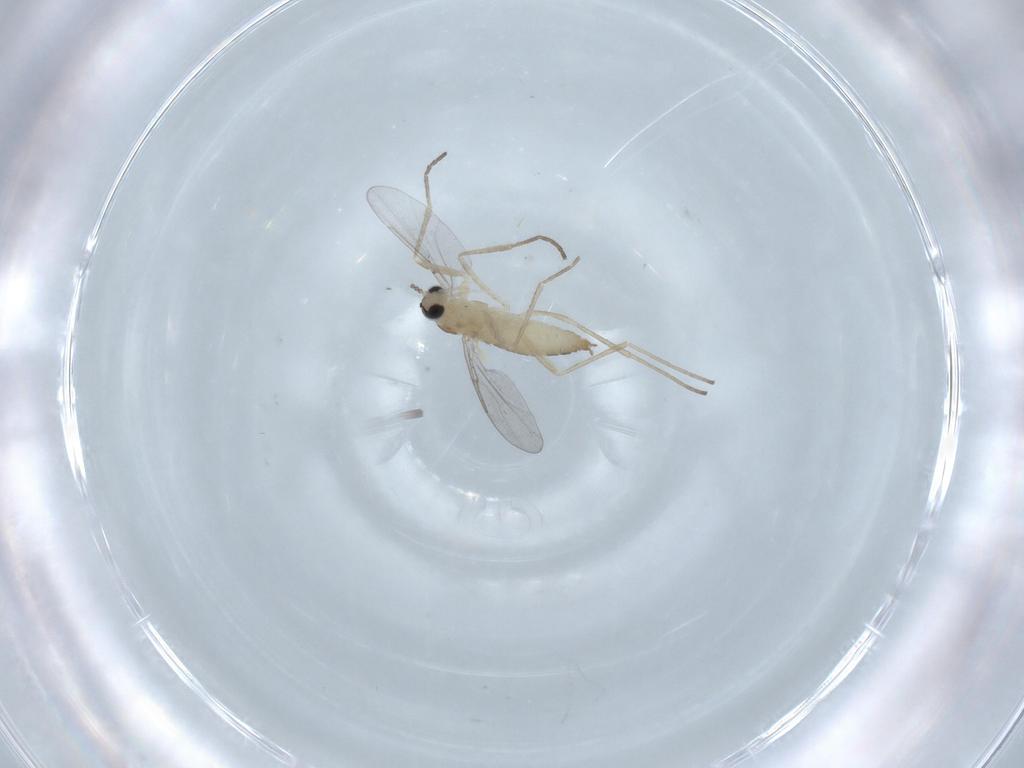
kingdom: Animalia
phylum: Arthropoda
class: Insecta
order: Diptera
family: Cecidomyiidae
